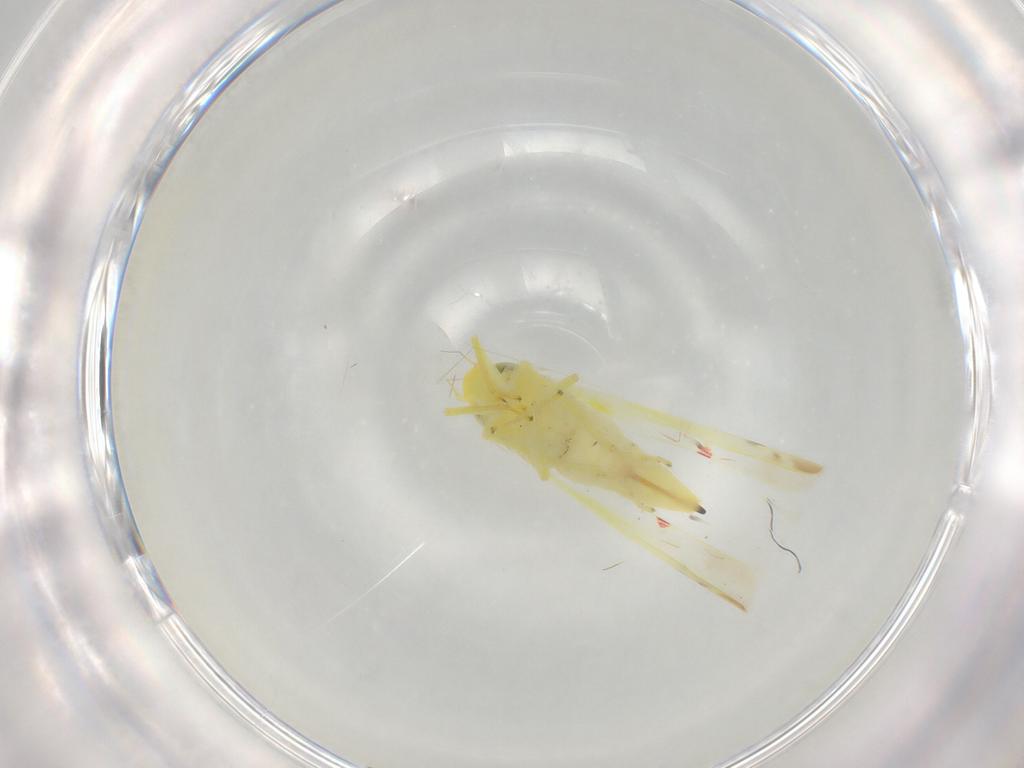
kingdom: Animalia
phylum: Arthropoda
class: Insecta
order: Hemiptera
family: Cicadellidae
